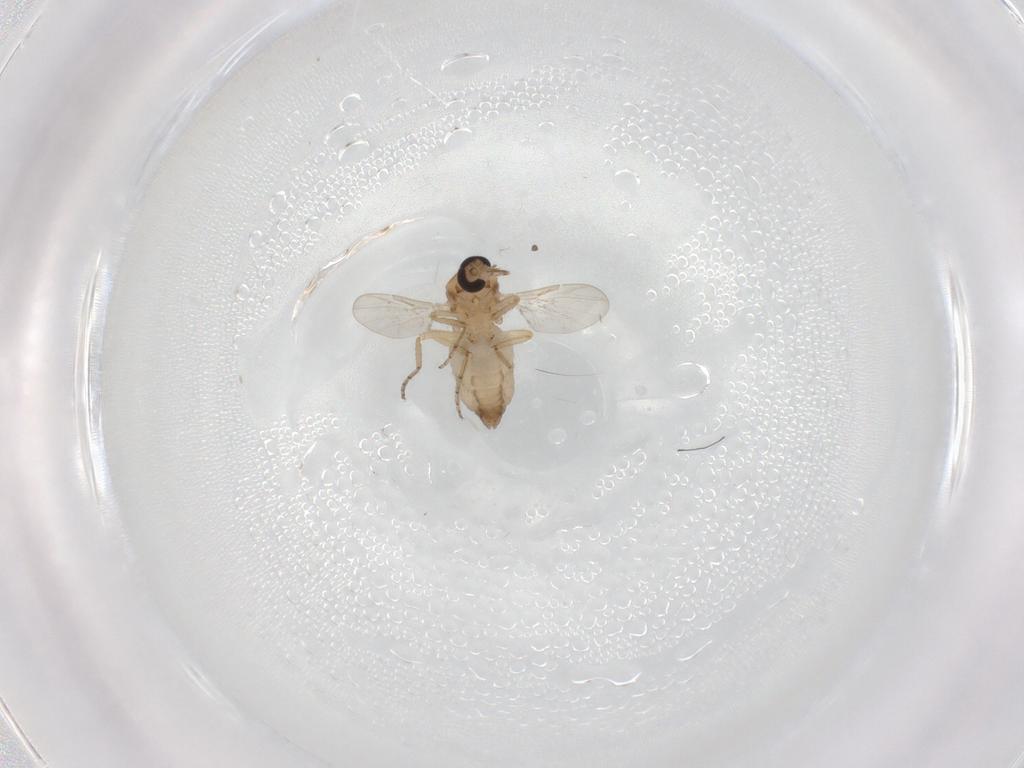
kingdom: Animalia
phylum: Arthropoda
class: Insecta
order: Diptera
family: Ceratopogonidae
